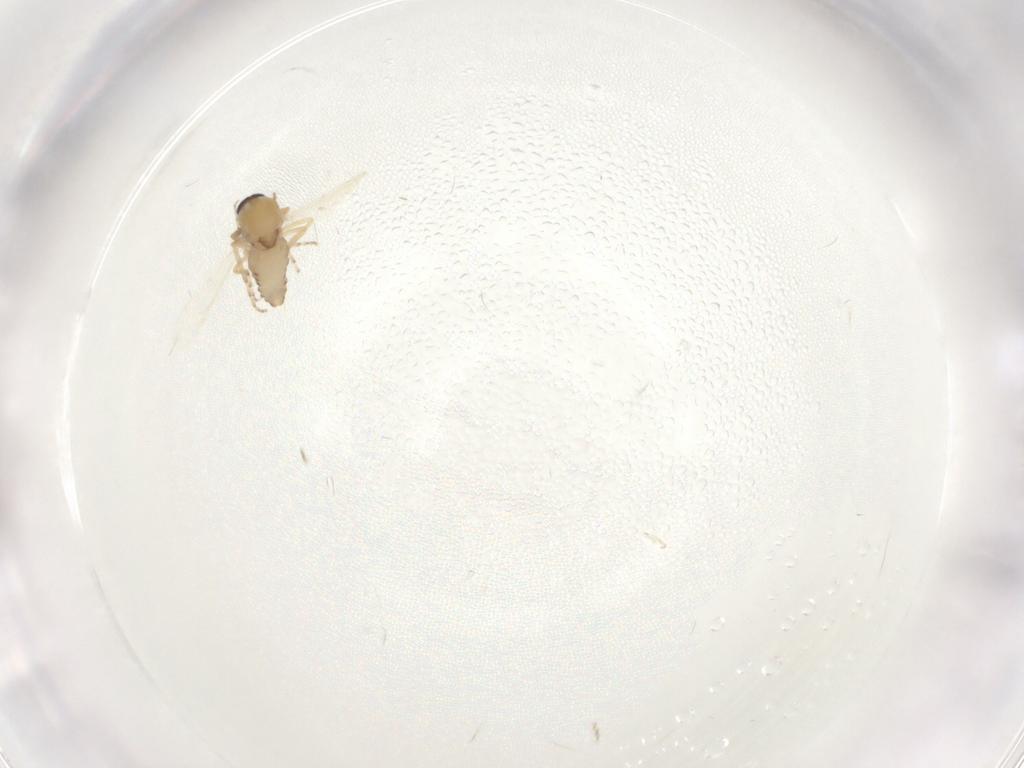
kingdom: Animalia
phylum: Arthropoda
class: Insecta
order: Diptera
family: Ceratopogonidae
